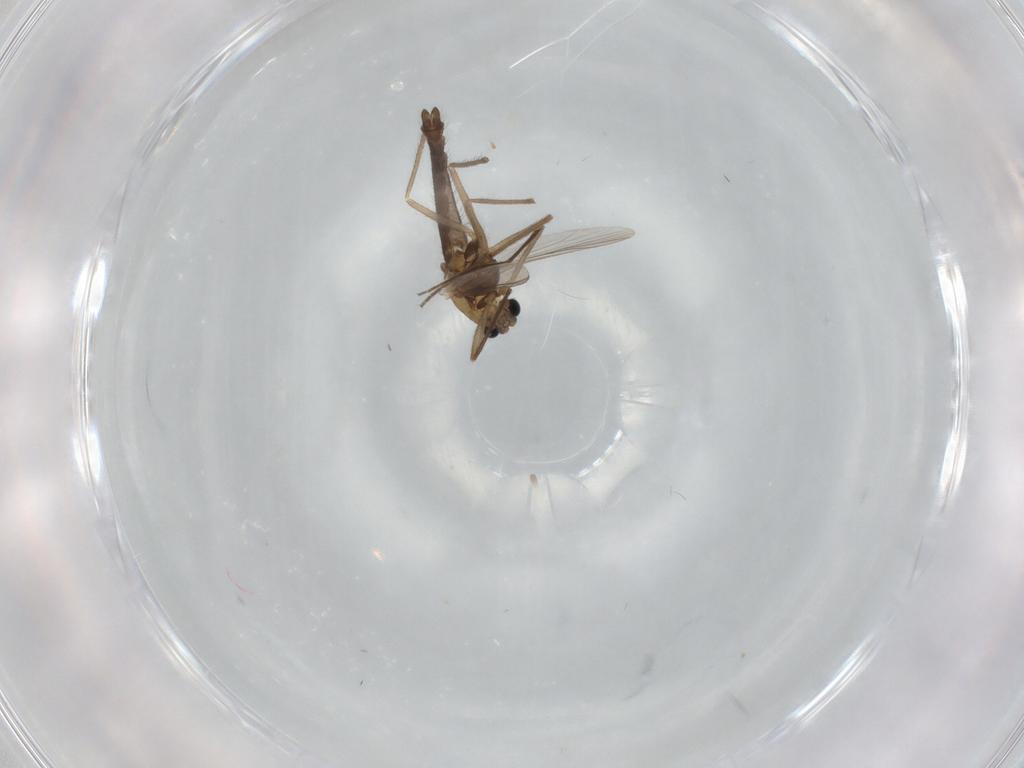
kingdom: Animalia
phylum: Arthropoda
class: Insecta
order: Diptera
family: Chironomidae
